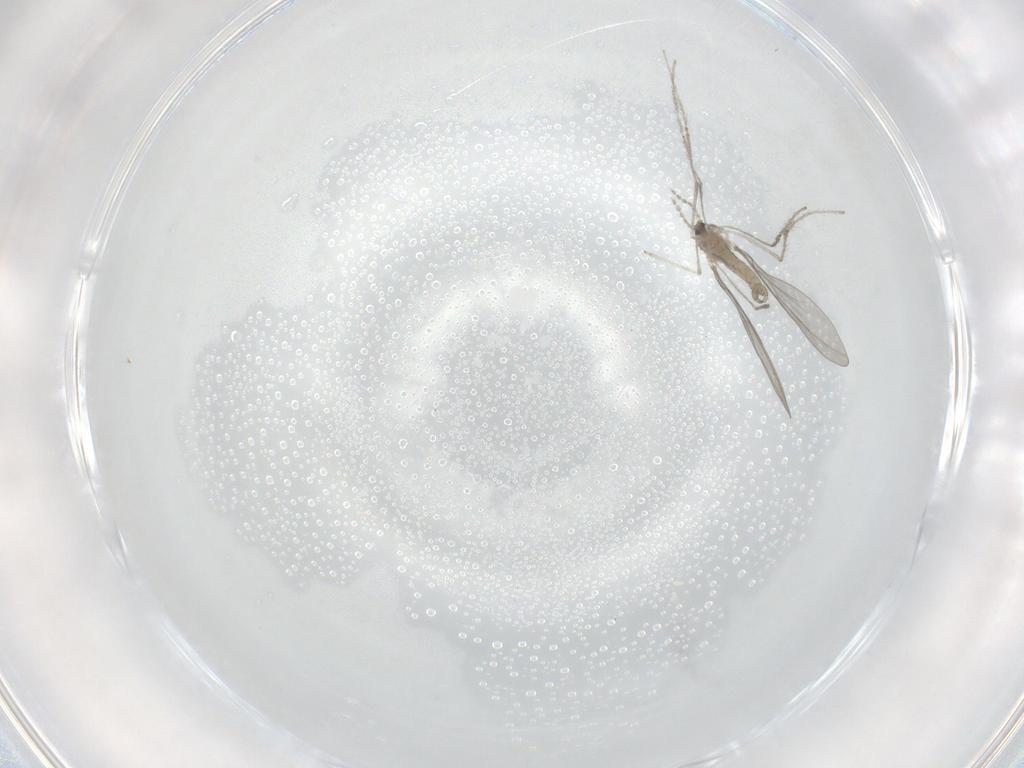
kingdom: Animalia
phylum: Arthropoda
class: Insecta
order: Diptera
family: Cecidomyiidae
